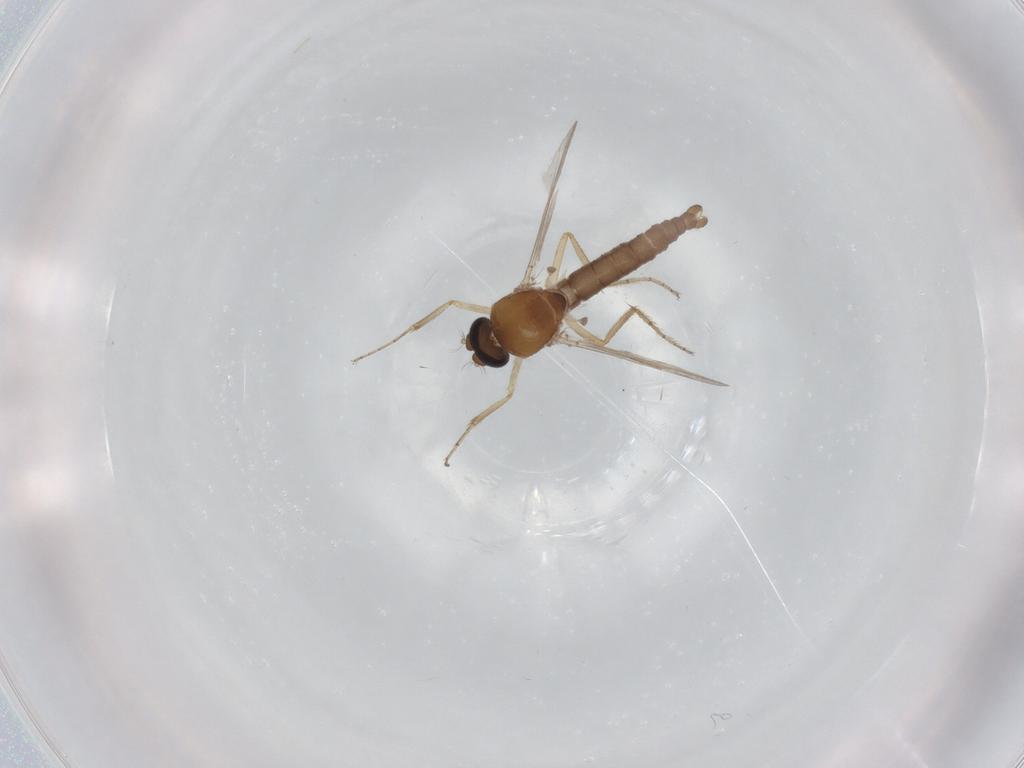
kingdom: Animalia
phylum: Arthropoda
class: Insecta
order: Diptera
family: Ceratopogonidae
